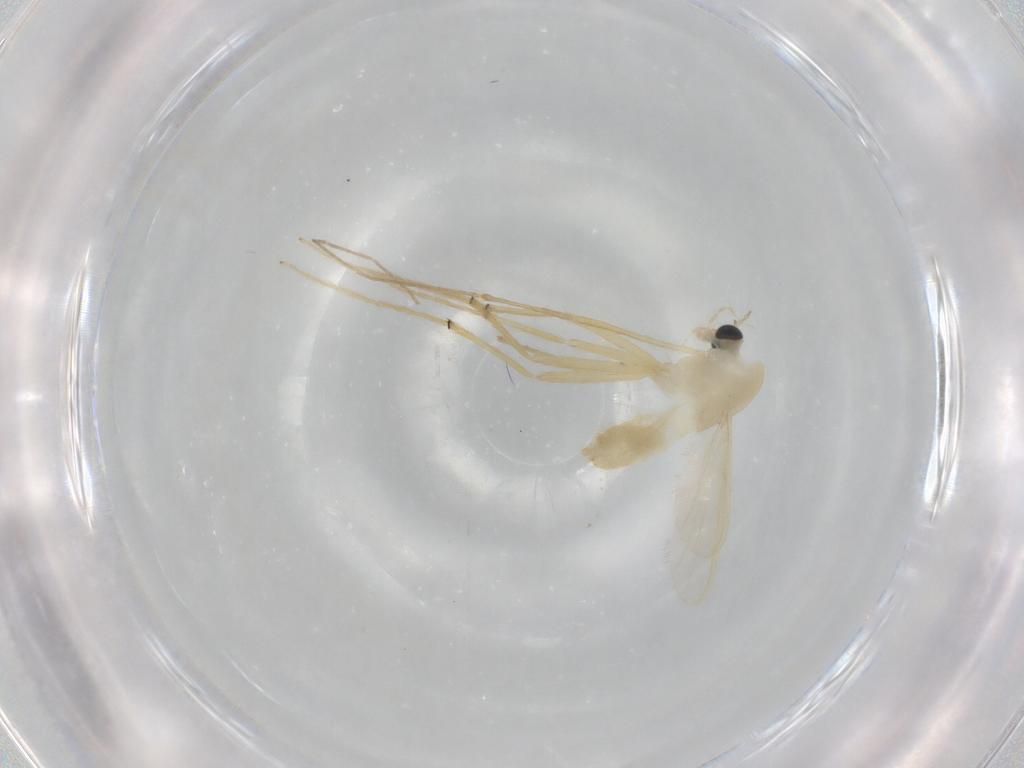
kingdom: Animalia
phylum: Arthropoda
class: Insecta
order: Diptera
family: Chironomidae
